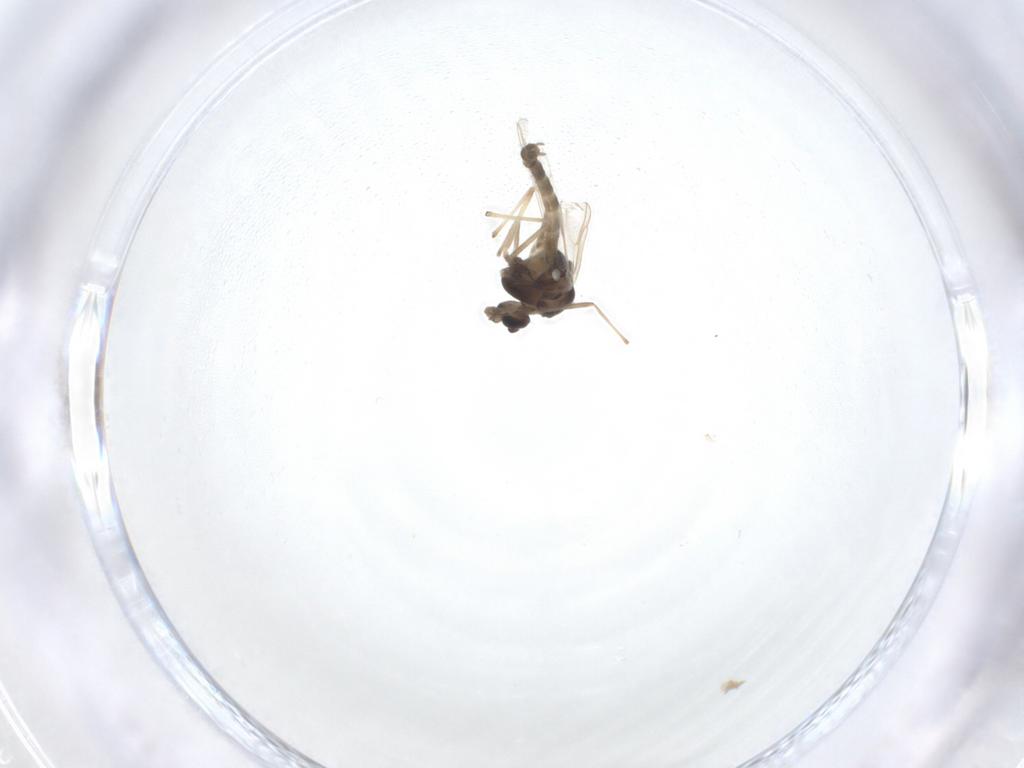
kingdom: Animalia
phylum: Arthropoda
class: Insecta
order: Diptera
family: Chironomidae
